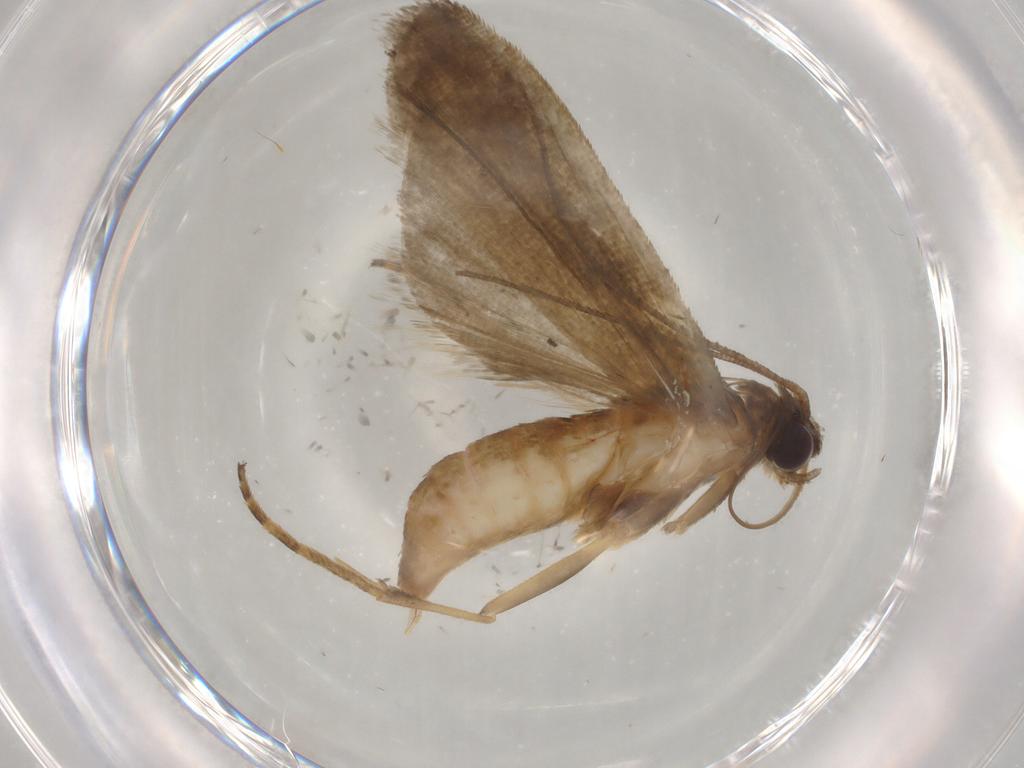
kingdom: Animalia
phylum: Arthropoda
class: Insecta
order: Lepidoptera
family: Noctuidae
